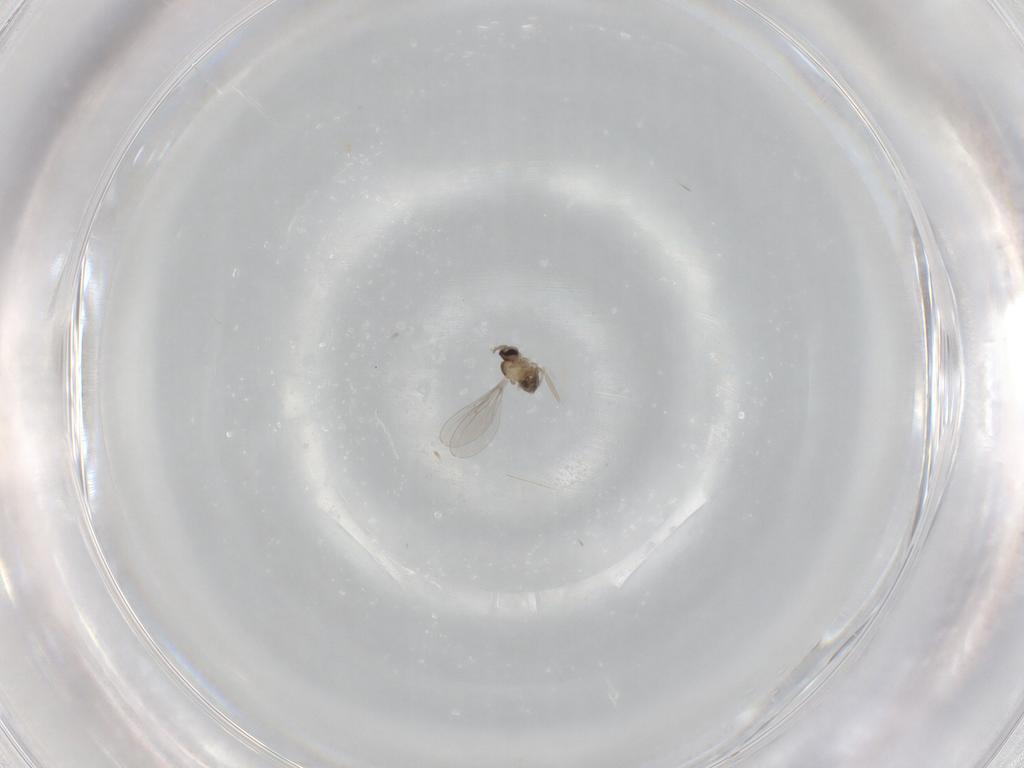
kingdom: Animalia
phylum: Arthropoda
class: Insecta
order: Diptera
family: Cecidomyiidae
